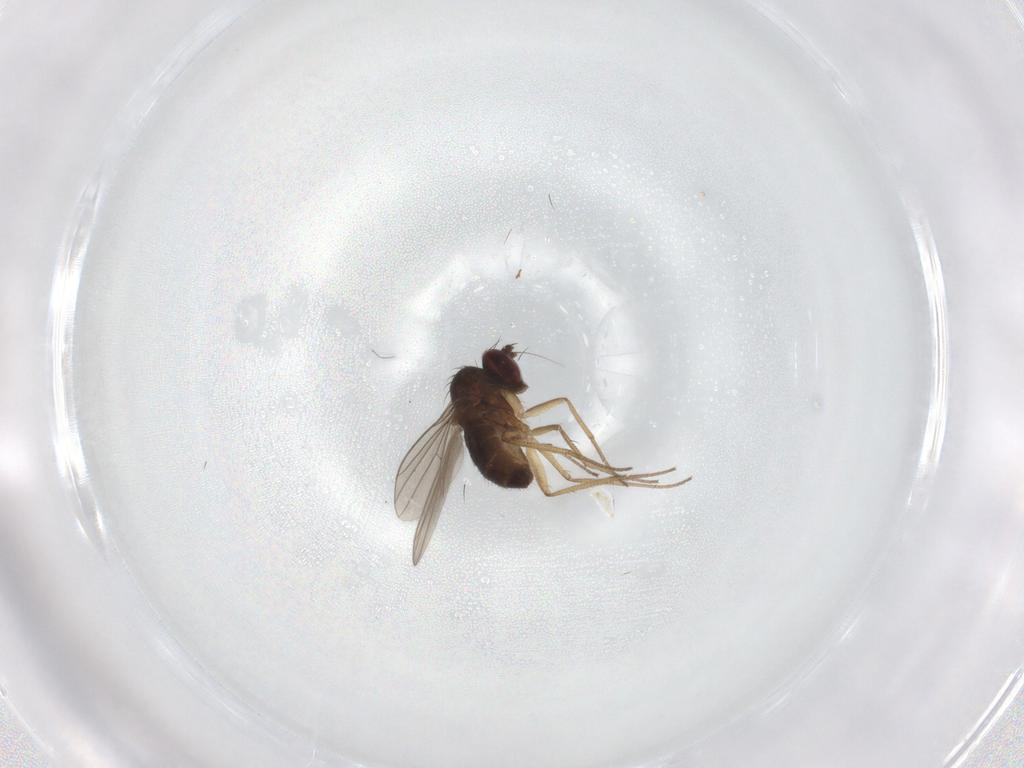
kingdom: Animalia
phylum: Arthropoda
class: Insecta
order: Diptera
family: Dolichopodidae
